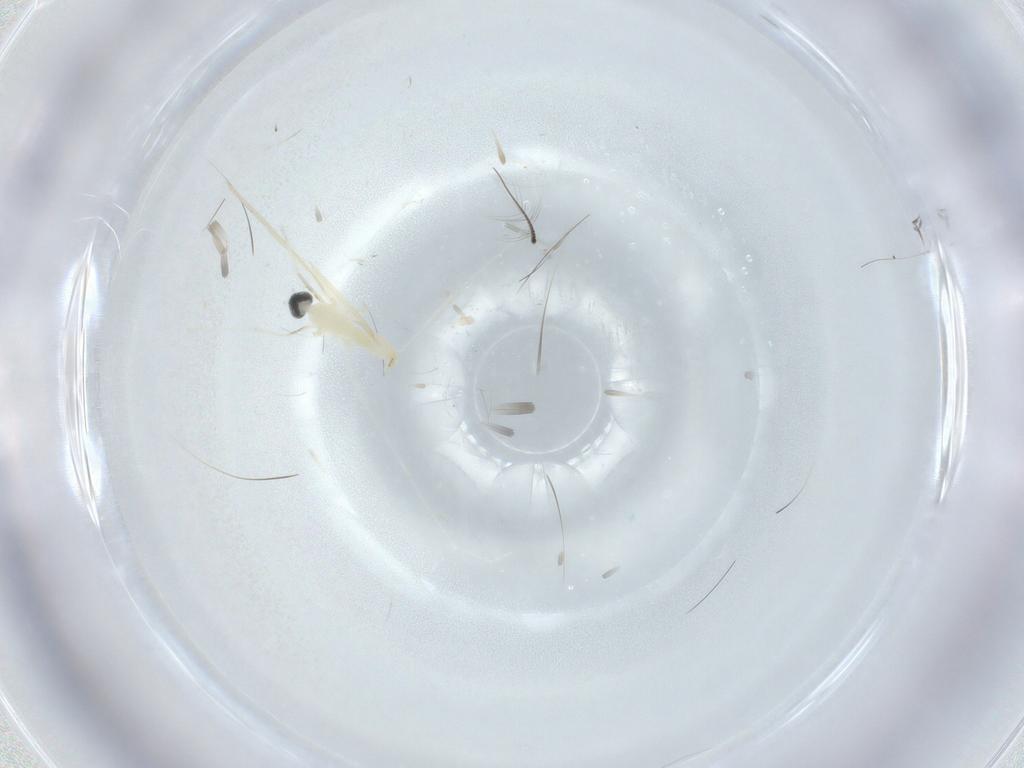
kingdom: Animalia
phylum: Arthropoda
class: Insecta
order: Diptera
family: Cecidomyiidae
